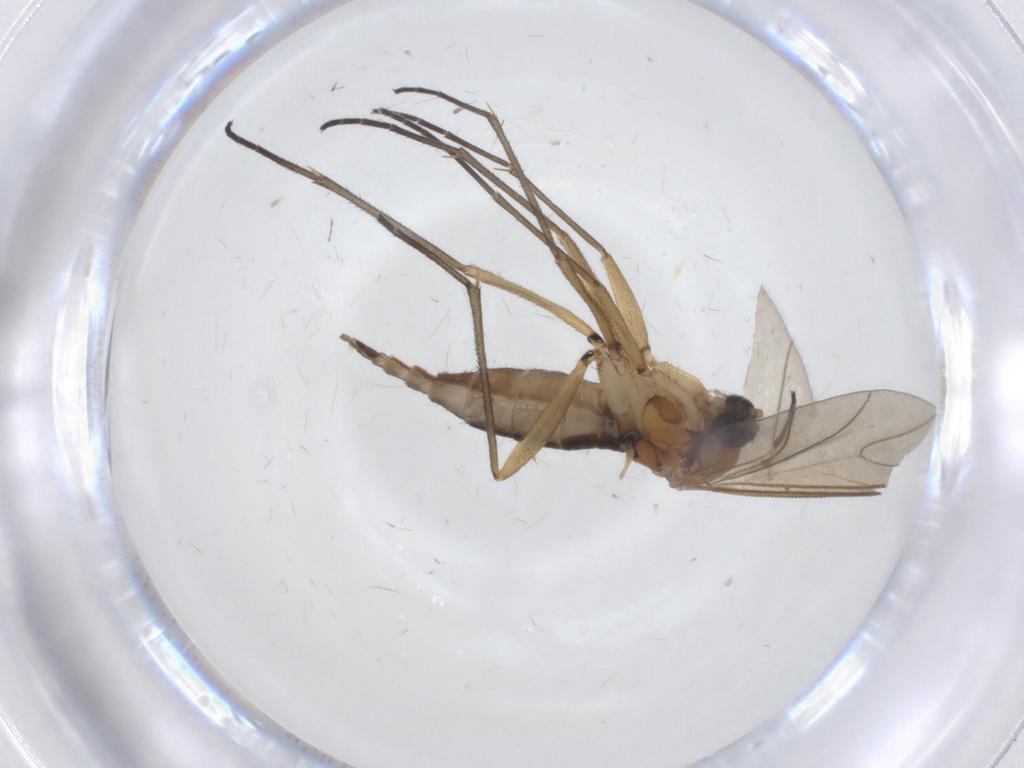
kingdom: Animalia
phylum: Arthropoda
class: Insecta
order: Diptera
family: Sciaridae
